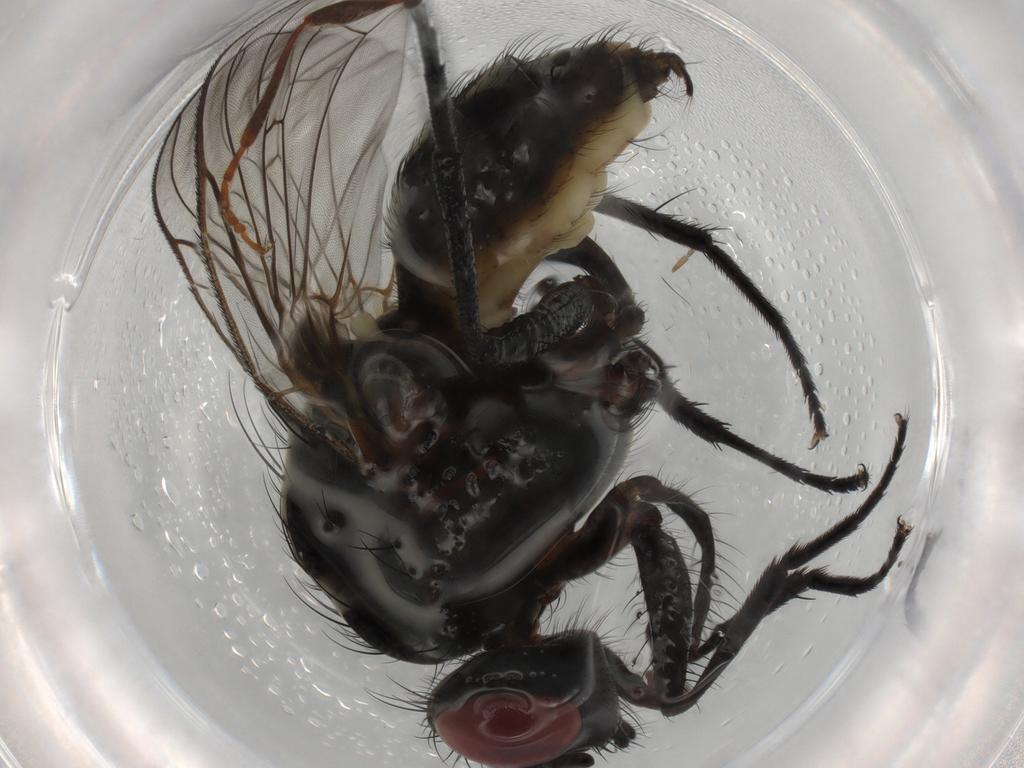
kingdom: Animalia
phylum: Arthropoda
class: Insecta
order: Diptera
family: Anthomyiidae
